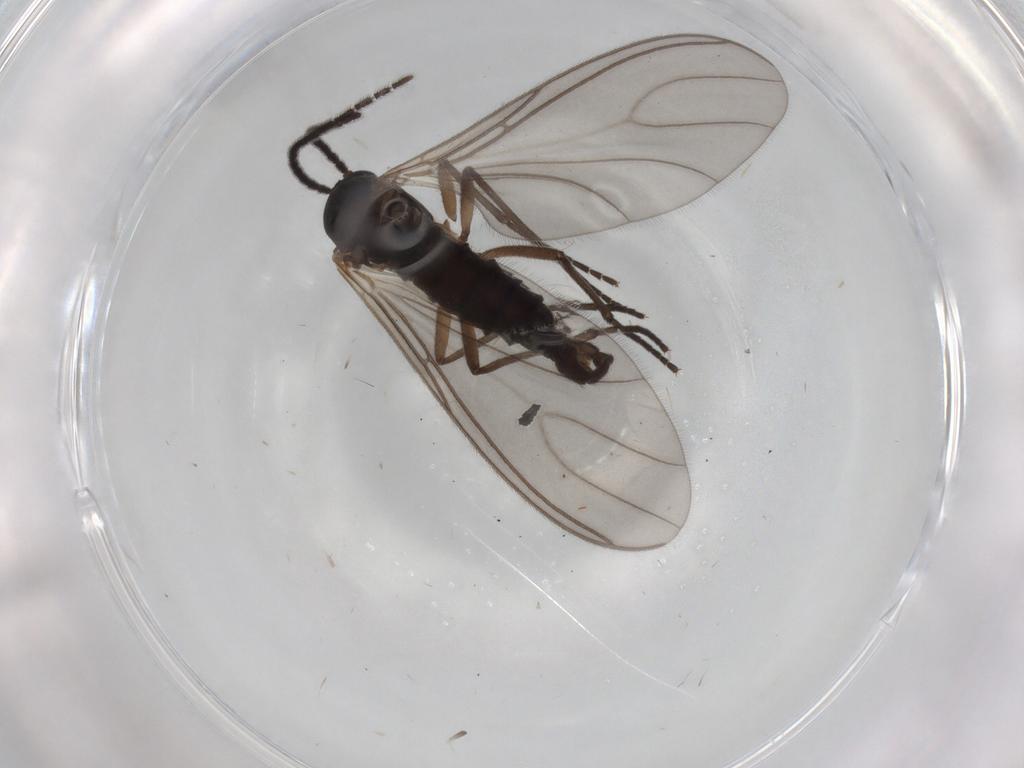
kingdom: Animalia
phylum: Arthropoda
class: Insecta
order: Diptera
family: Sciaridae
